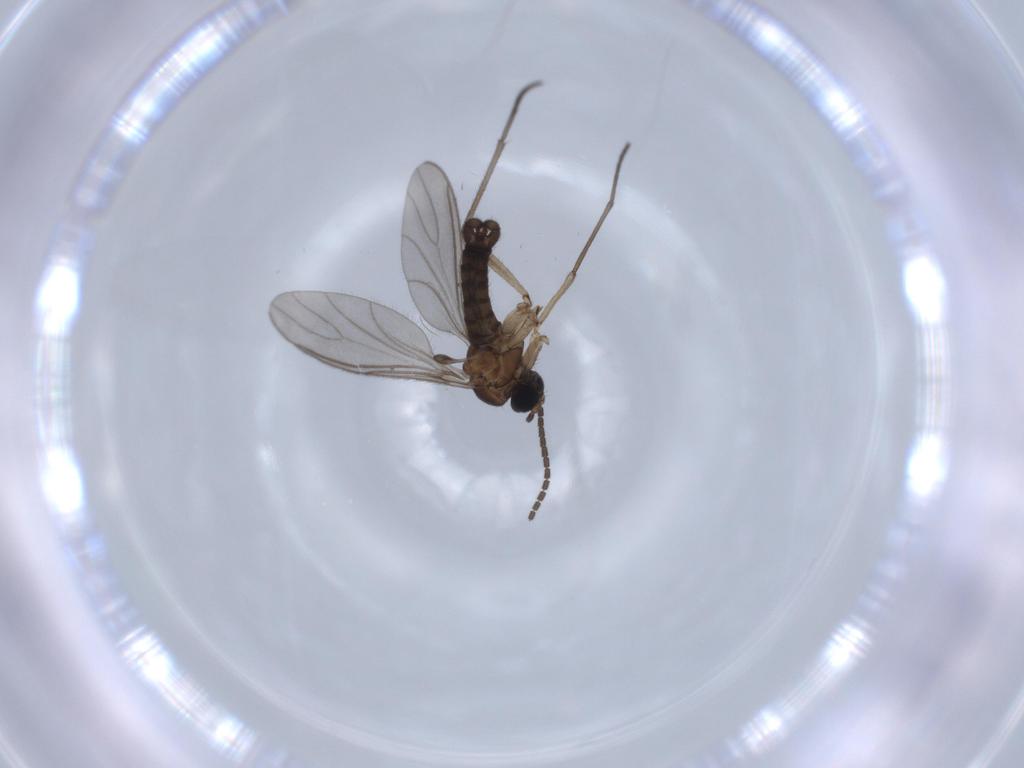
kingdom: Animalia
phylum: Arthropoda
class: Insecta
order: Diptera
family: Sciaridae
